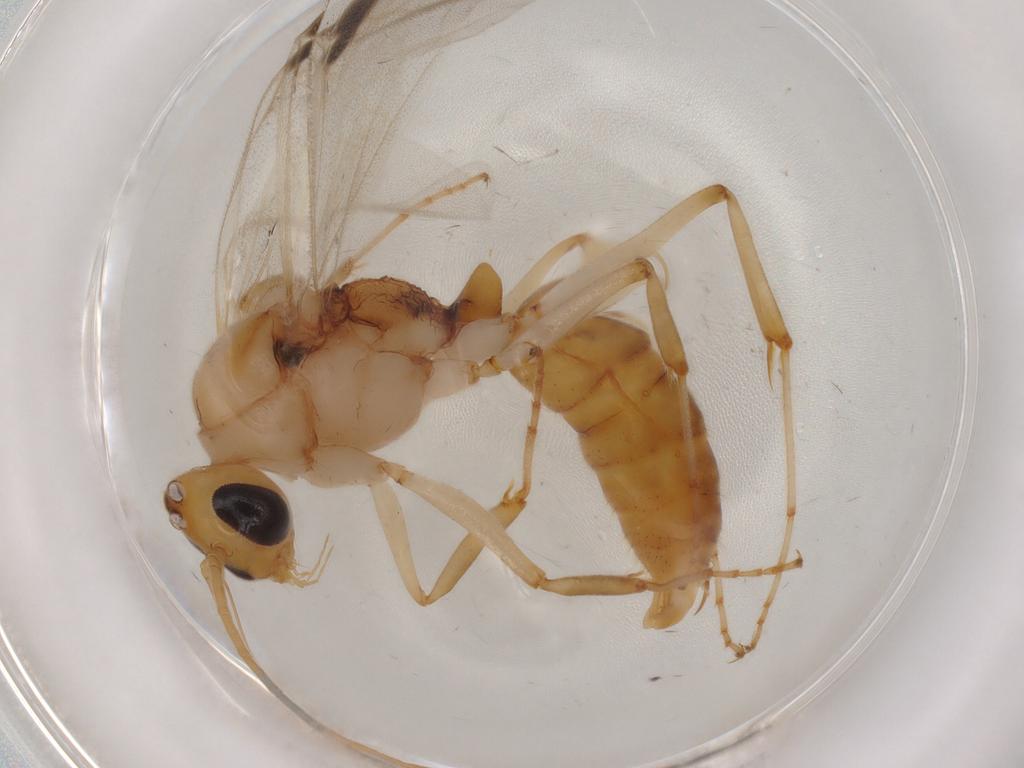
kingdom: Animalia
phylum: Arthropoda
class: Insecta
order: Hymenoptera
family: Formicidae
